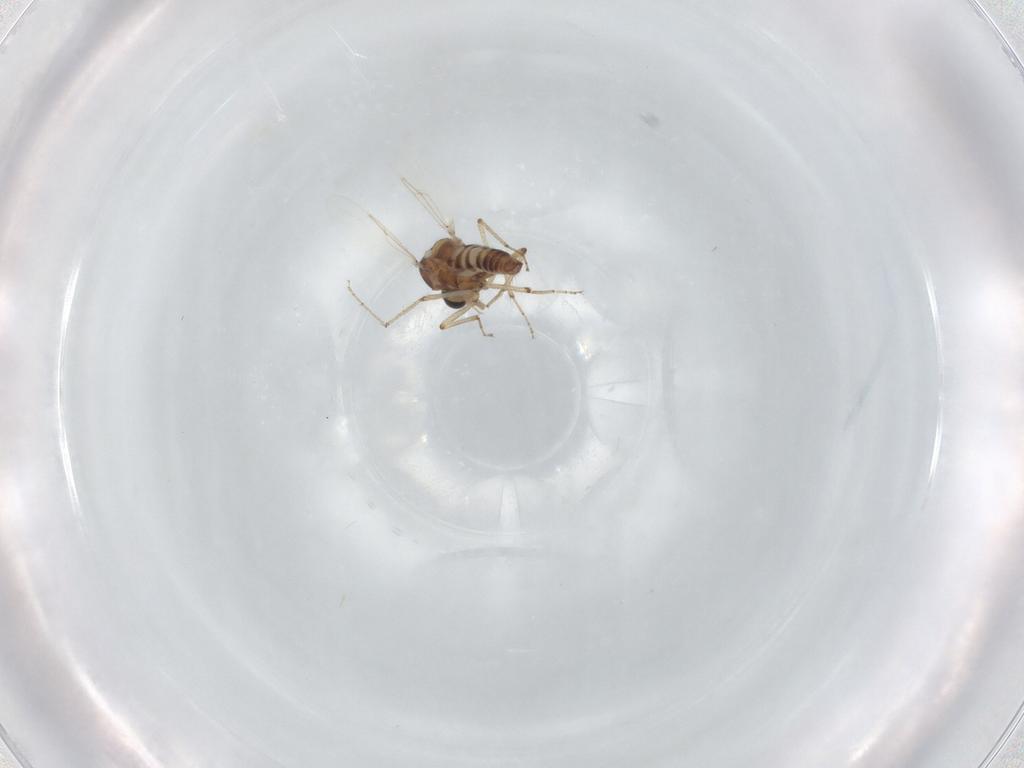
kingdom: Animalia
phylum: Arthropoda
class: Insecta
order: Diptera
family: Ceratopogonidae
